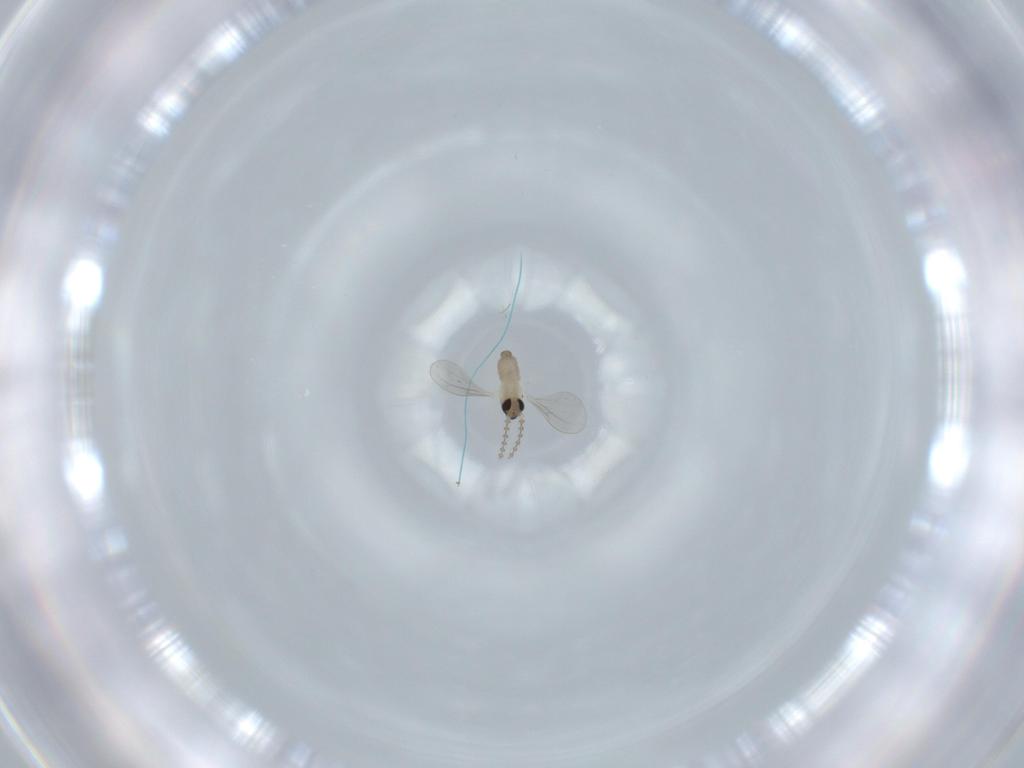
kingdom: Animalia
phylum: Arthropoda
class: Insecta
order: Diptera
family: Cecidomyiidae
